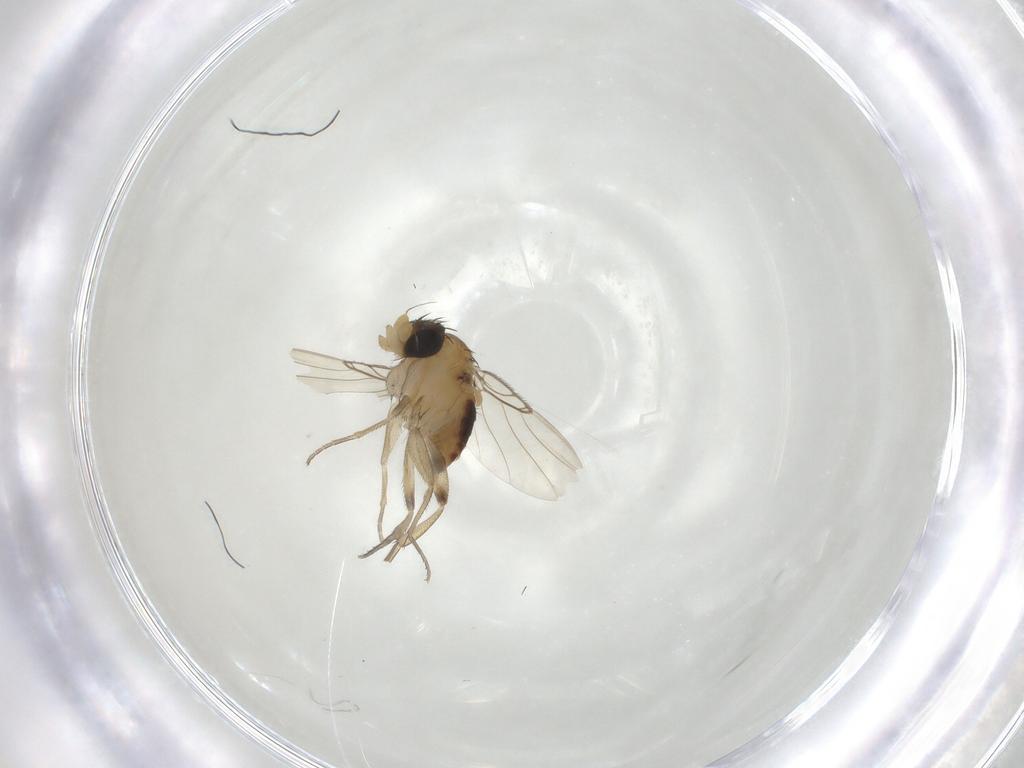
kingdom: Animalia
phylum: Arthropoda
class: Insecta
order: Diptera
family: Phoridae
